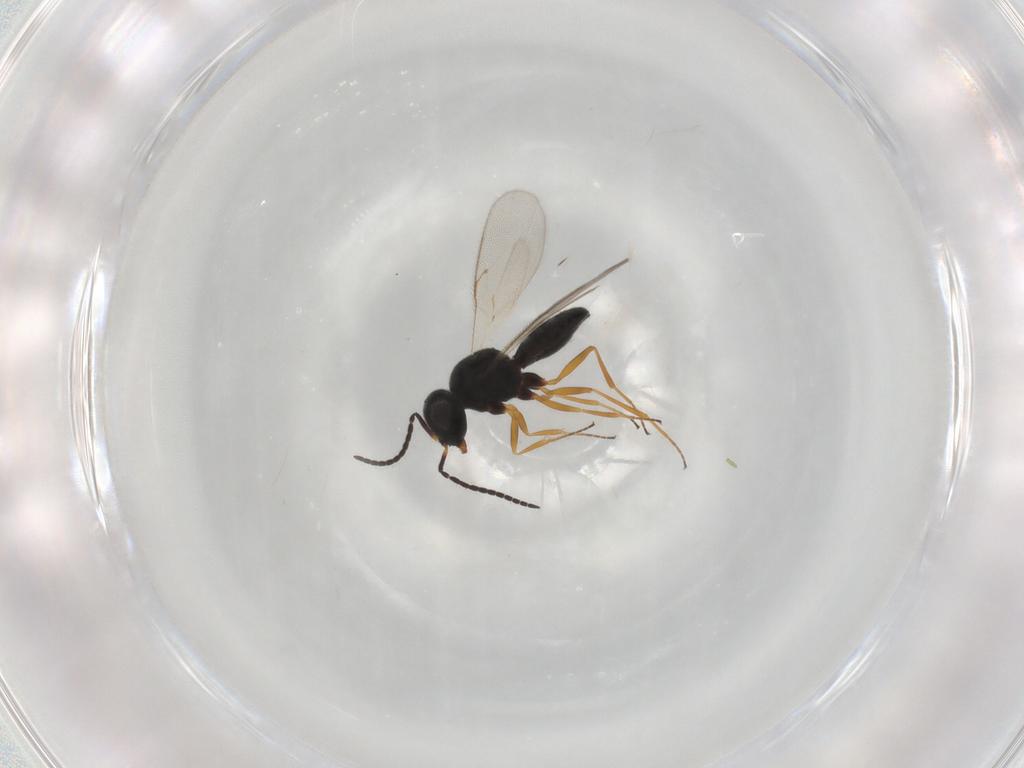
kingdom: Animalia
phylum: Arthropoda
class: Insecta
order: Hymenoptera
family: Scelionidae
